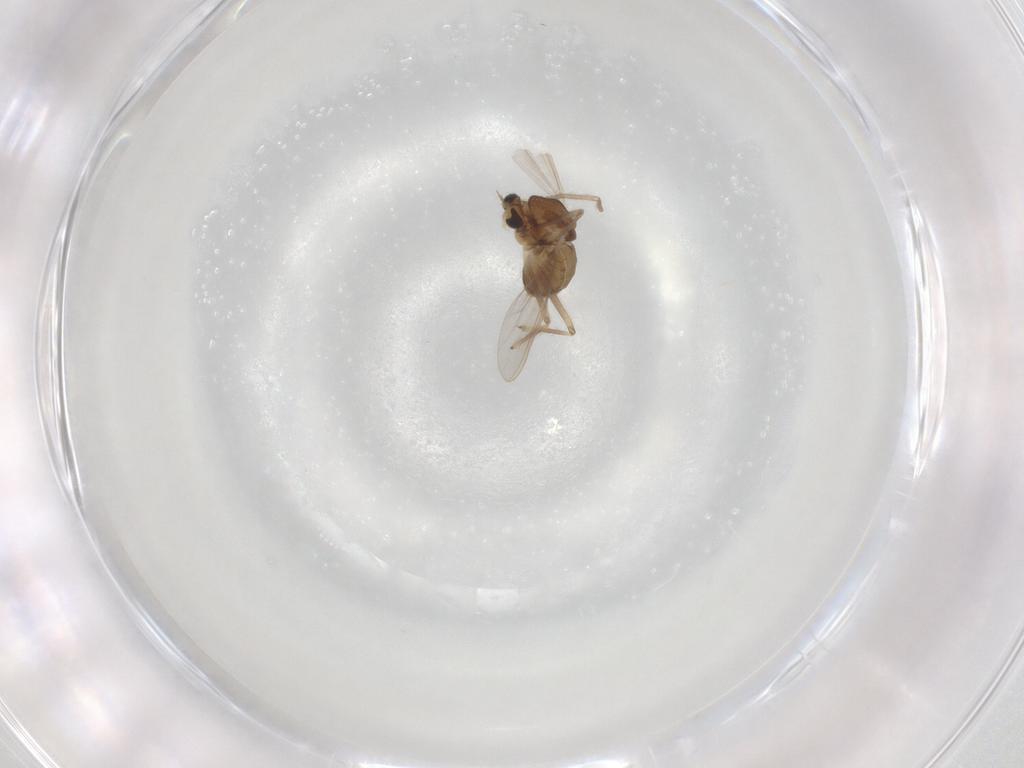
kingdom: Animalia
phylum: Arthropoda
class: Insecta
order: Diptera
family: Chironomidae
